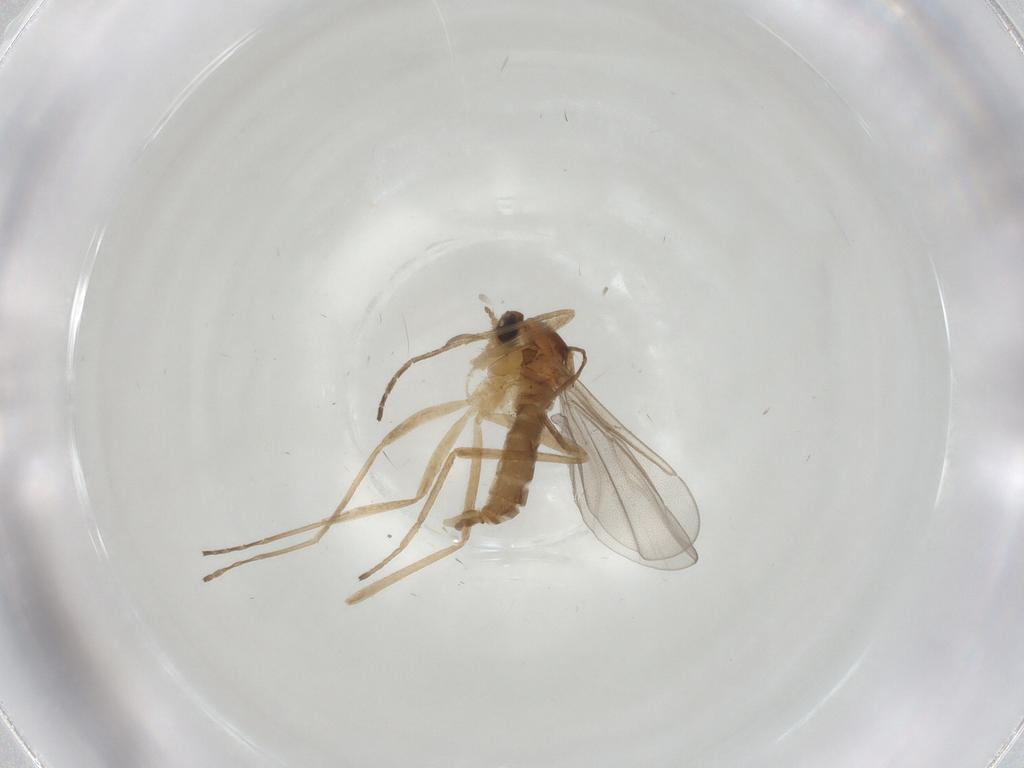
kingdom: Animalia
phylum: Arthropoda
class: Insecta
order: Diptera
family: Cecidomyiidae
